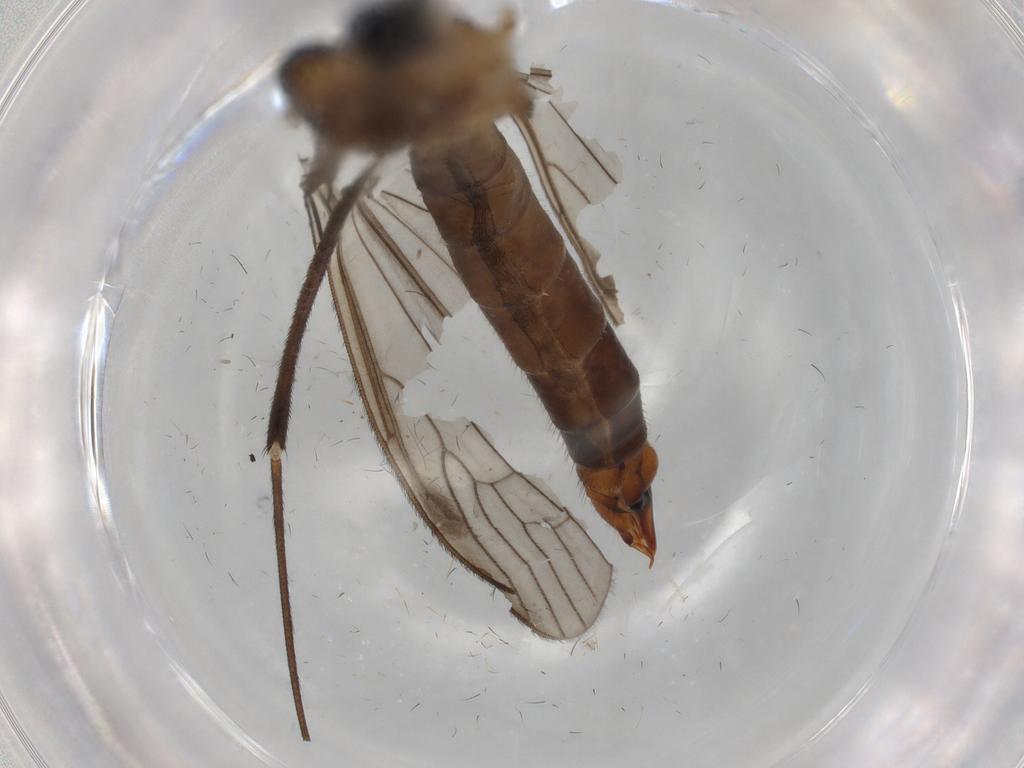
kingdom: Animalia
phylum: Arthropoda
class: Insecta
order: Diptera
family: Limoniidae
